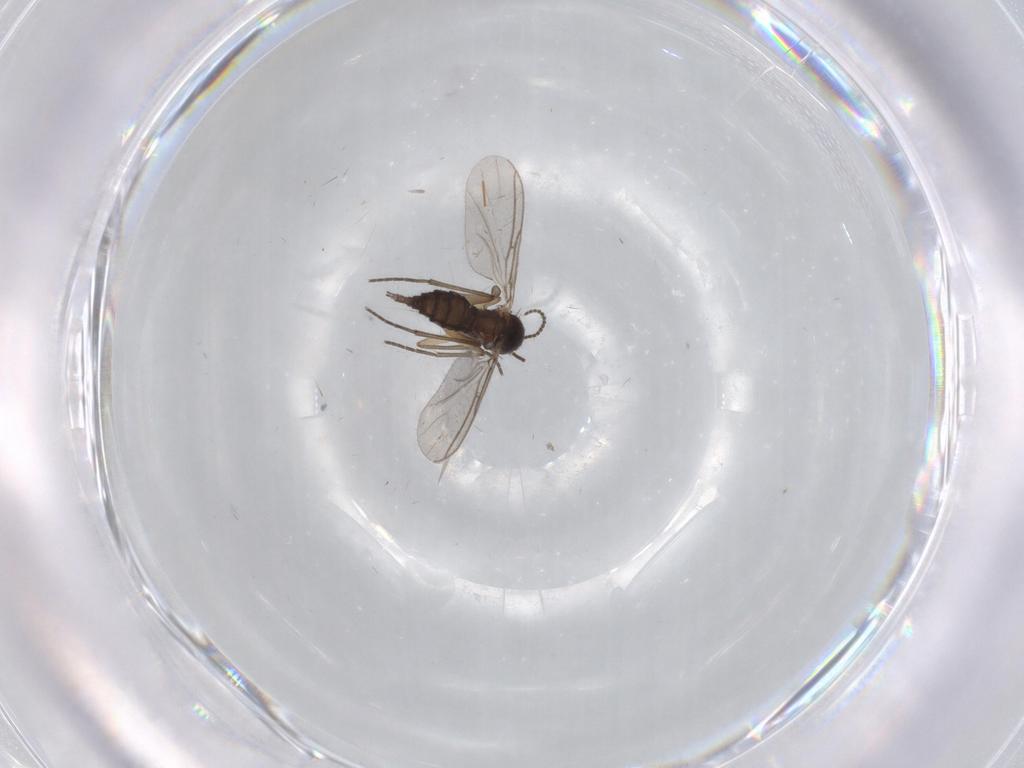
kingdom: Animalia
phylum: Arthropoda
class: Insecta
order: Diptera
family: Sciaridae
